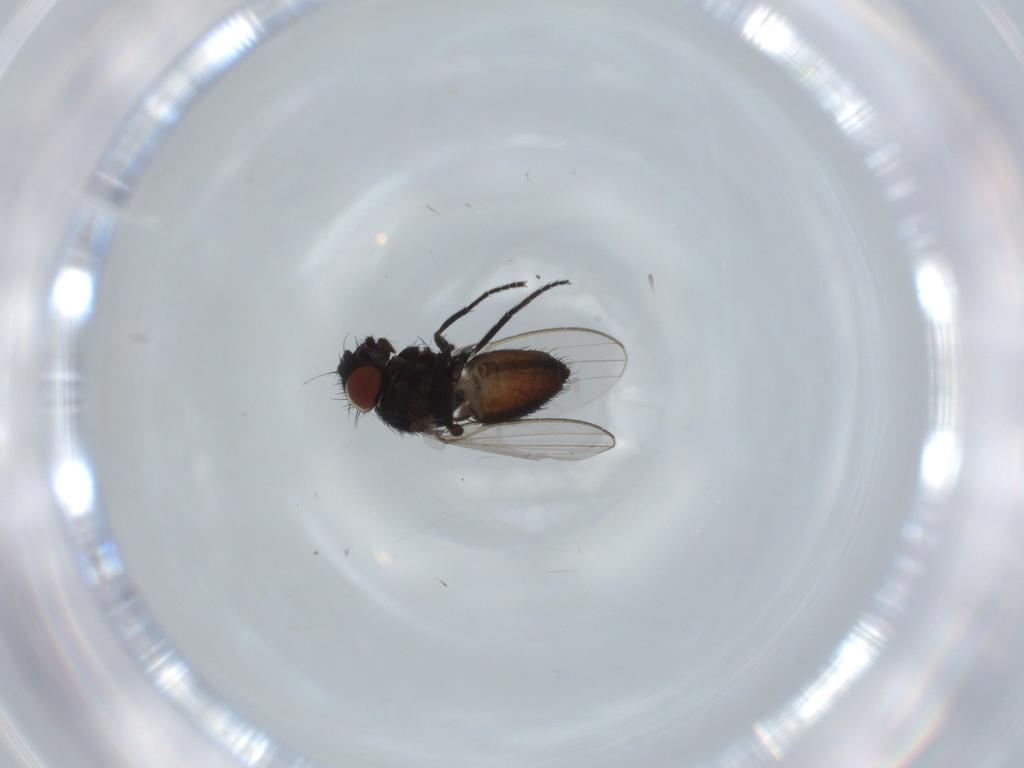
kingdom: Animalia
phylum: Arthropoda
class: Insecta
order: Diptera
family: Milichiidae
